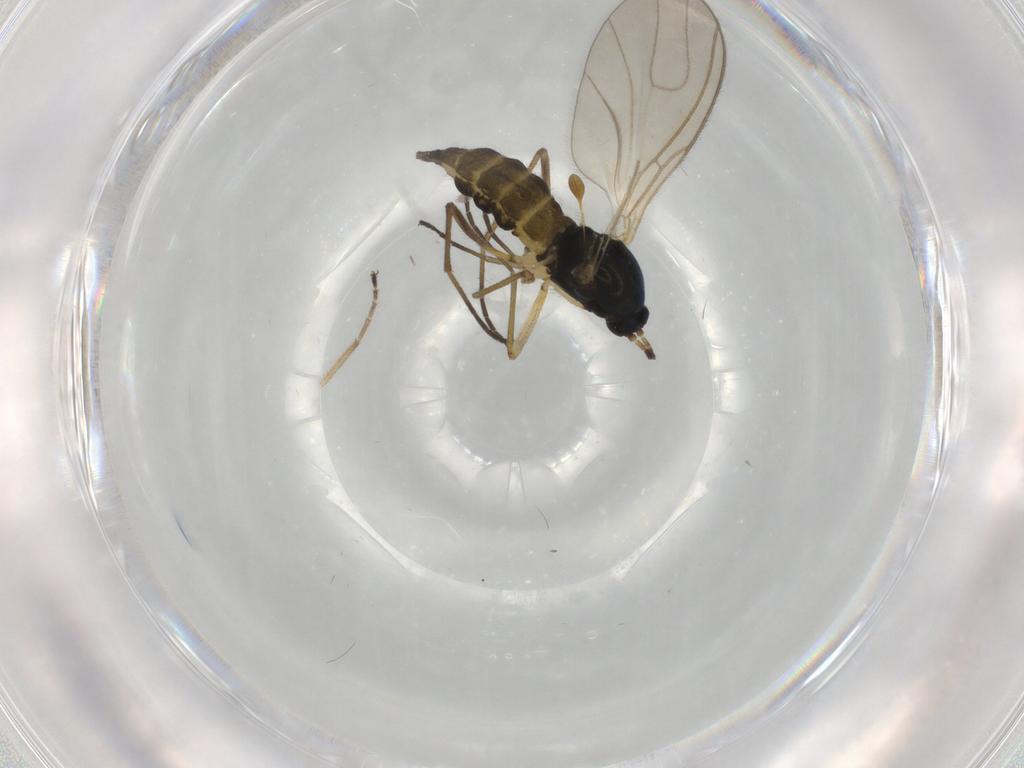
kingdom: Animalia
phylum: Arthropoda
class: Insecta
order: Diptera
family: Sciaridae
